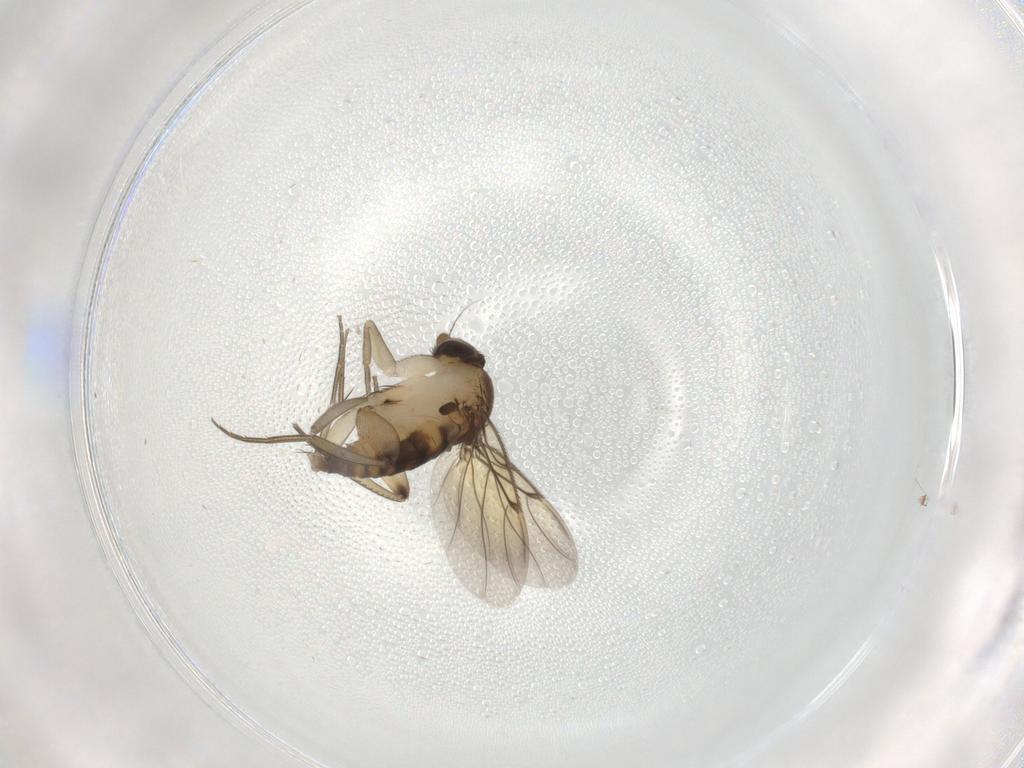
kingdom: Animalia
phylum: Arthropoda
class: Insecta
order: Diptera
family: Phoridae
